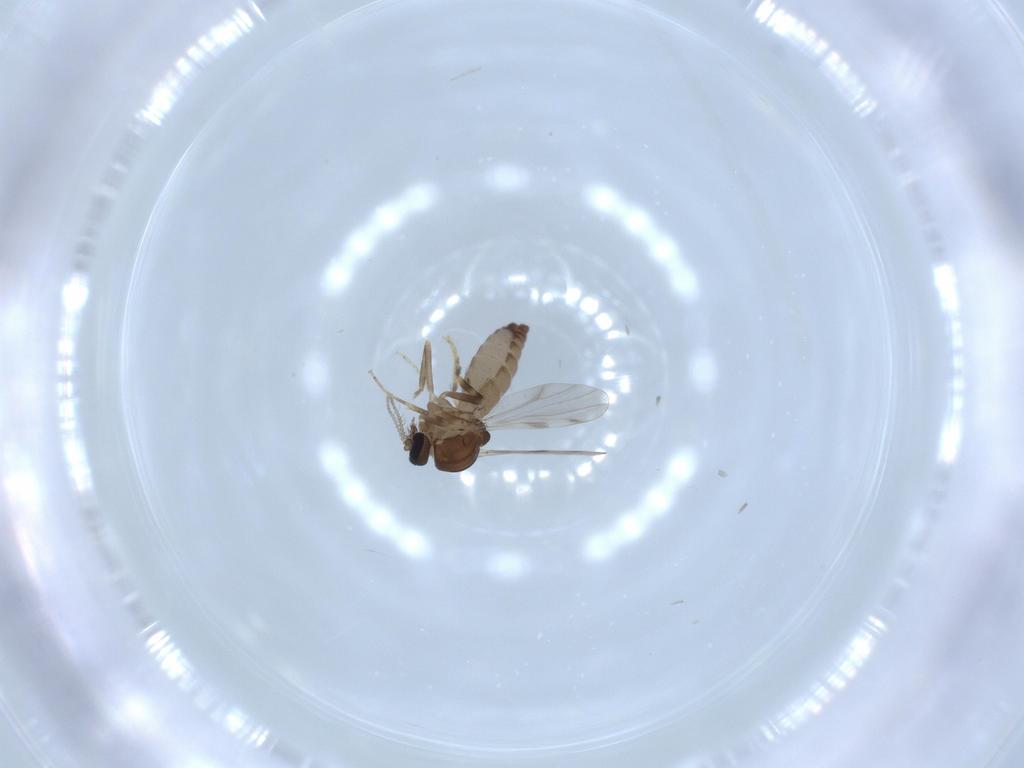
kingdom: Animalia
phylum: Arthropoda
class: Insecta
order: Diptera
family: Ceratopogonidae
